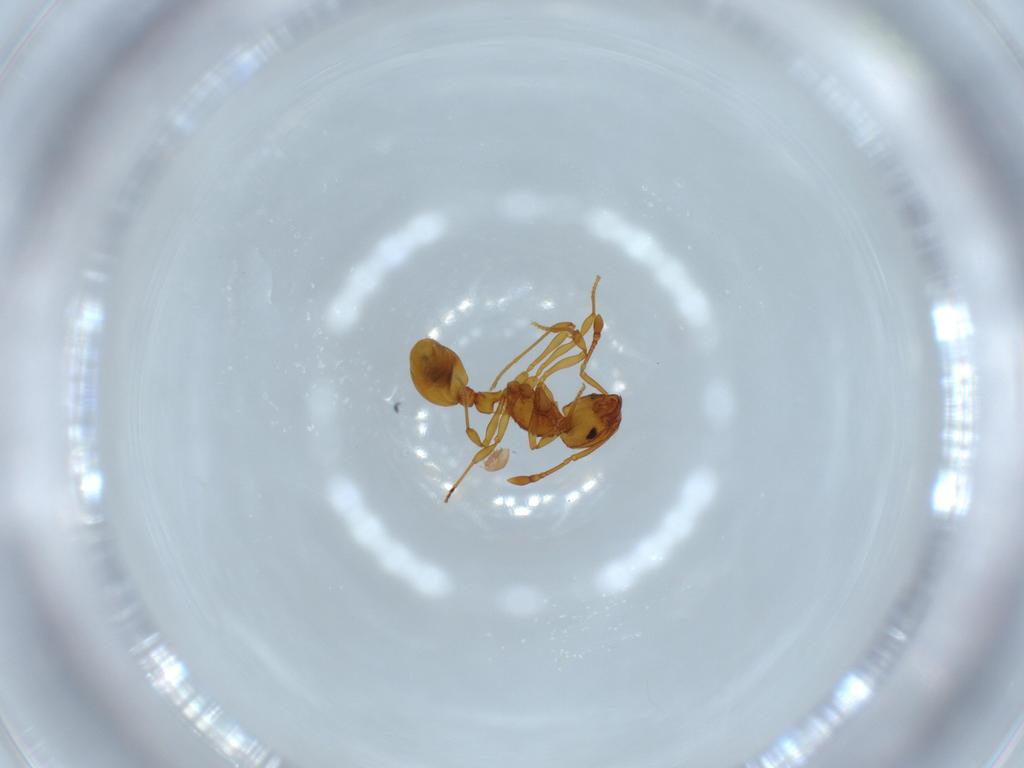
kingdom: Animalia
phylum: Arthropoda
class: Insecta
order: Hymenoptera
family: Formicidae
